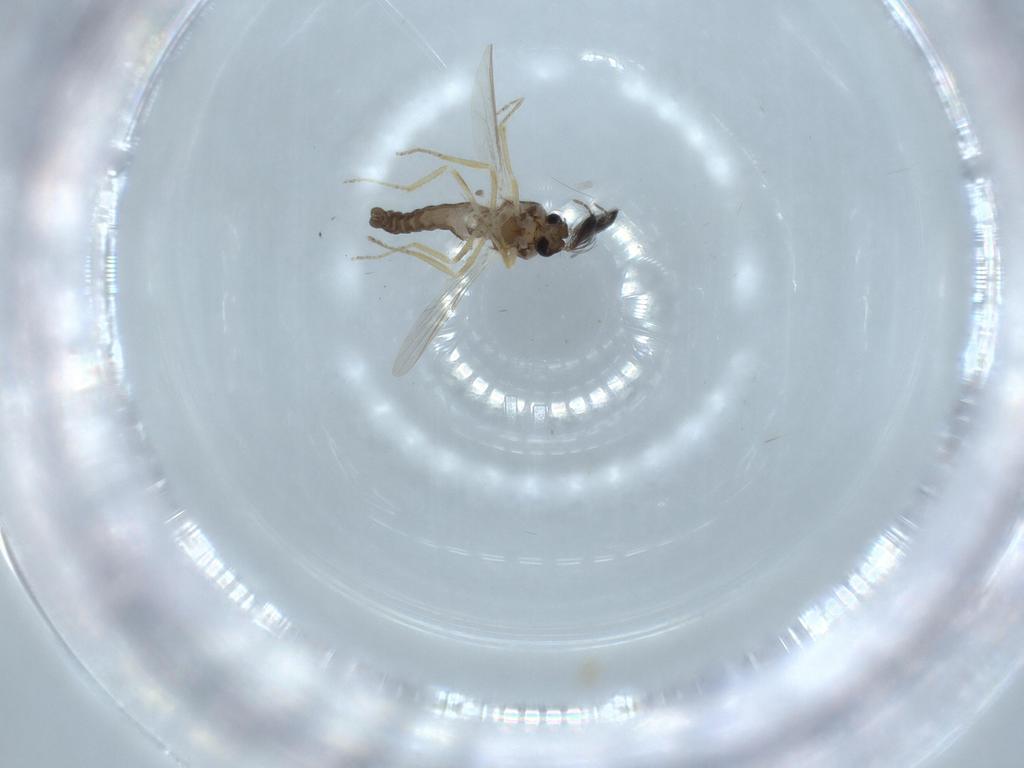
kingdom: Animalia
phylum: Arthropoda
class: Insecta
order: Diptera
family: Ceratopogonidae
